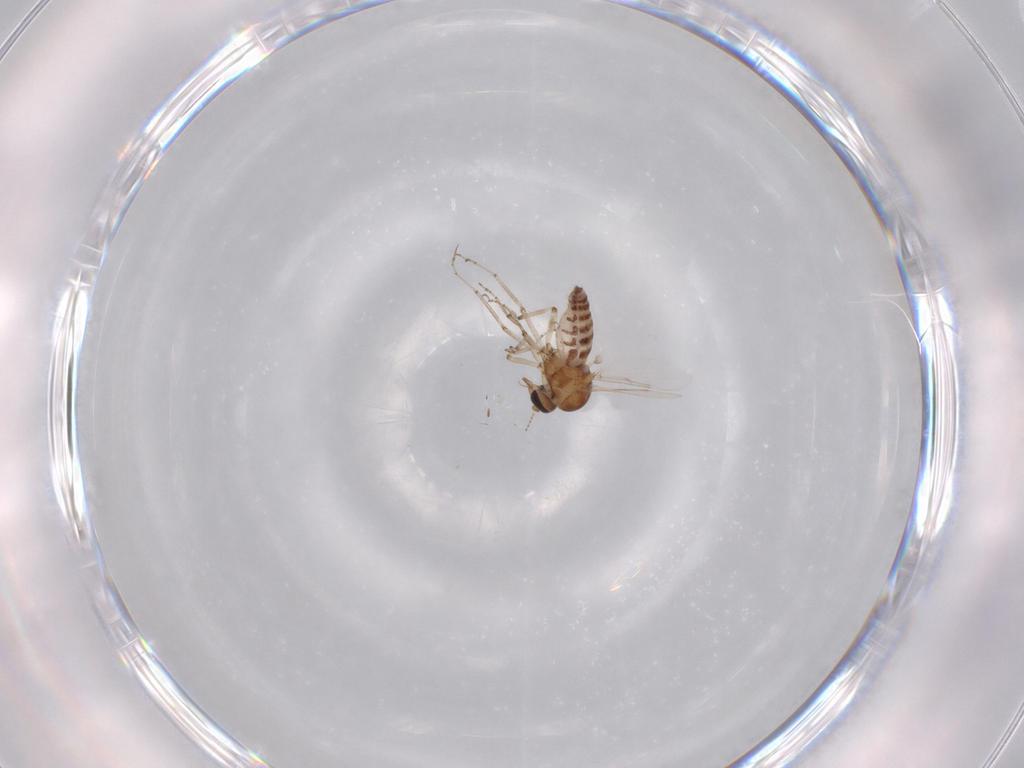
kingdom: Animalia
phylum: Arthropoda
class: Insecta
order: Diptera
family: Ceratopogonidae
